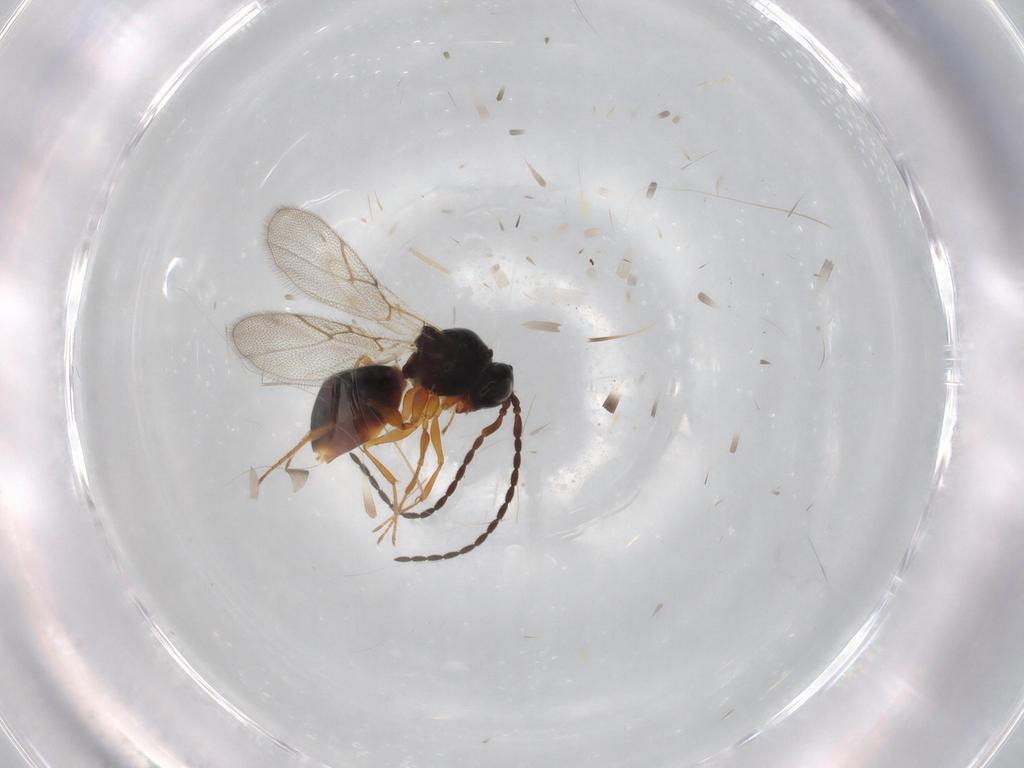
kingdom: Animalia
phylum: Arthropoda
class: Insecta
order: Hymenoptera
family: Figitidae
